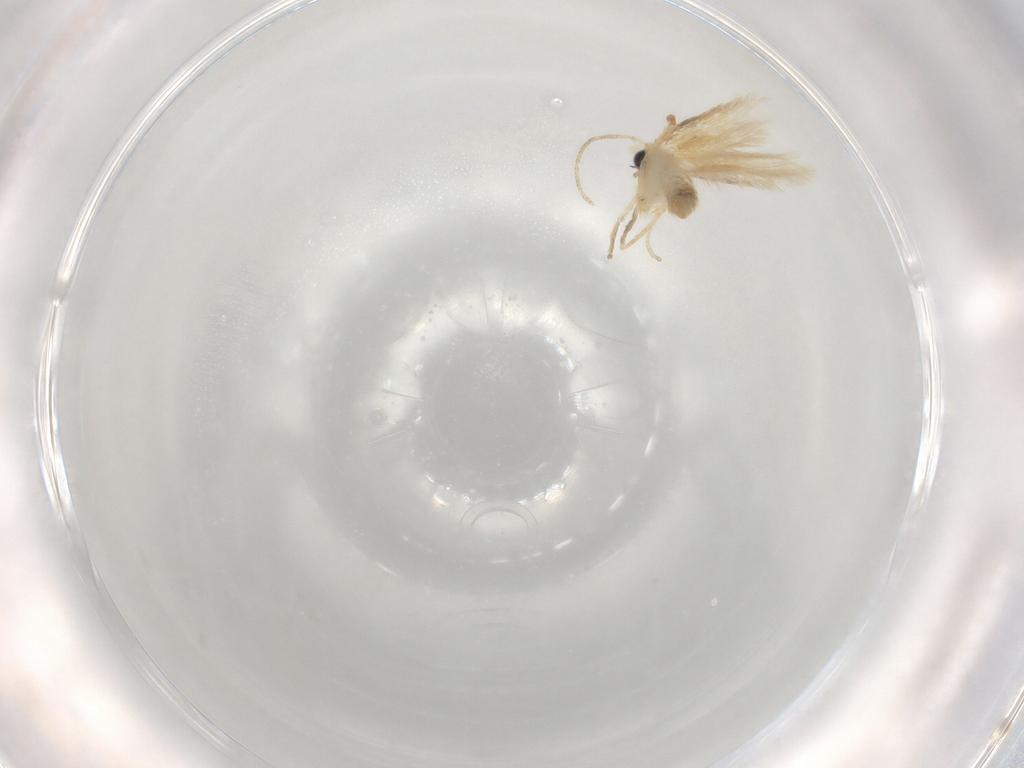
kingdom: Animalia
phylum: Arthropoda
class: Insecta
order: Lepidoptera
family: Nepticulidae
